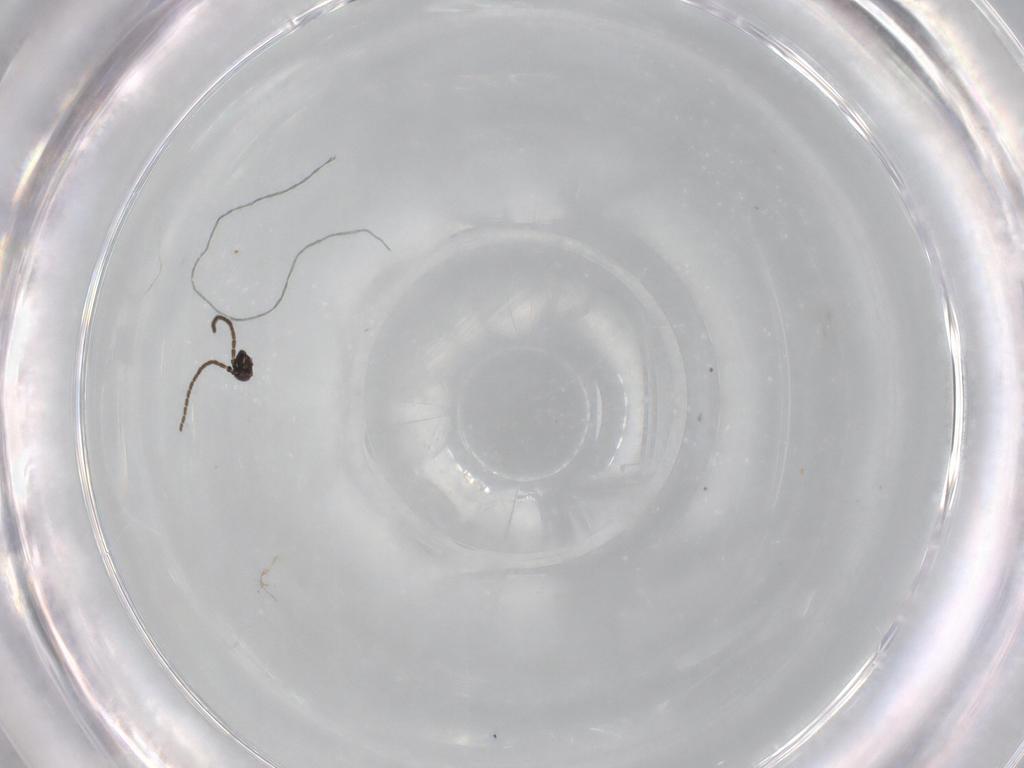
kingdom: Animalia
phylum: Arthropoda
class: Insecta
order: Diptera
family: Sciaridae
